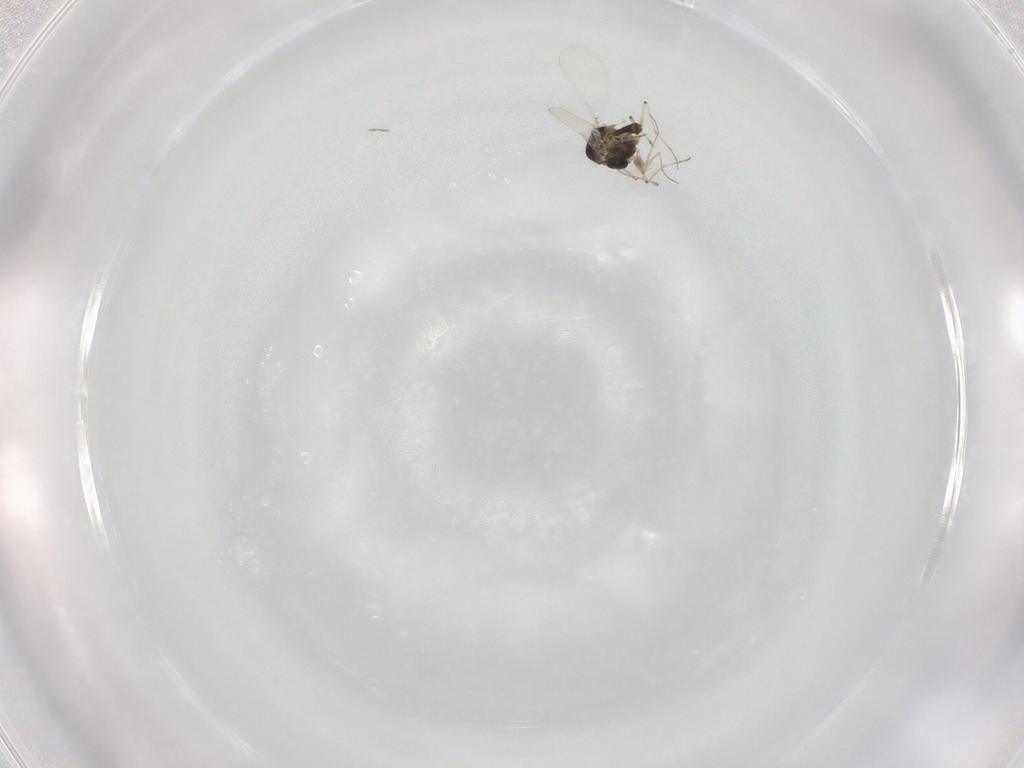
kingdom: Animalia
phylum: Arthropoda
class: Insecta
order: Diptera
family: Chironomidae
